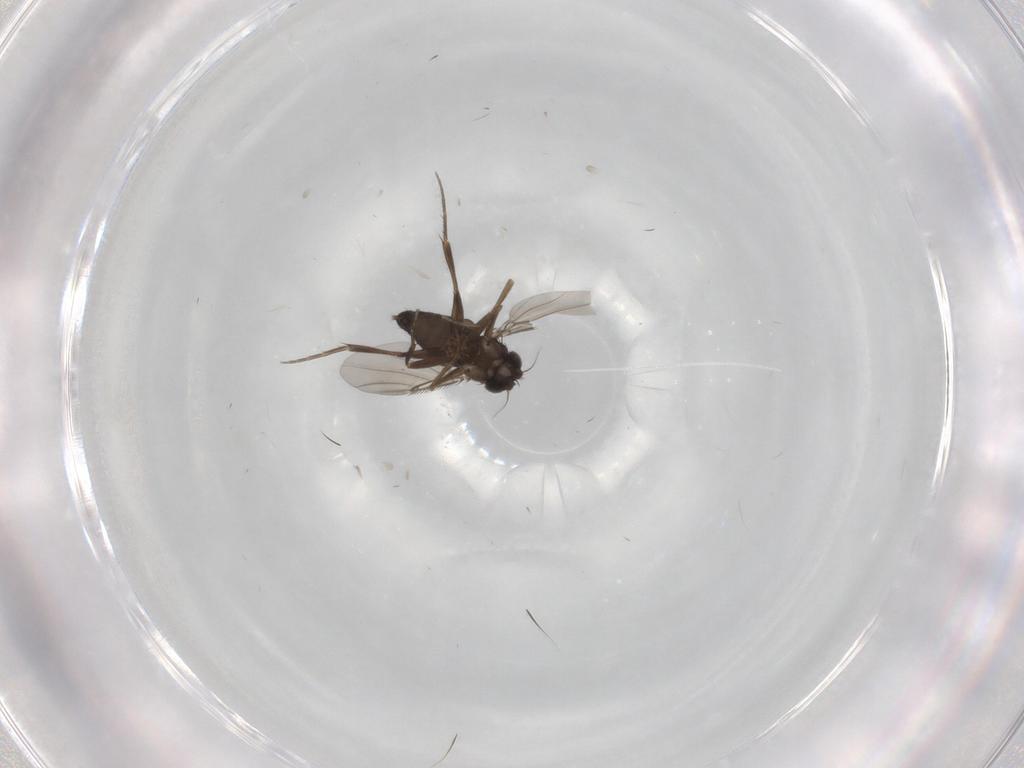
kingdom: Animalia
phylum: Arthropoda
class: Insecta
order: Diptera
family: Phoridae
